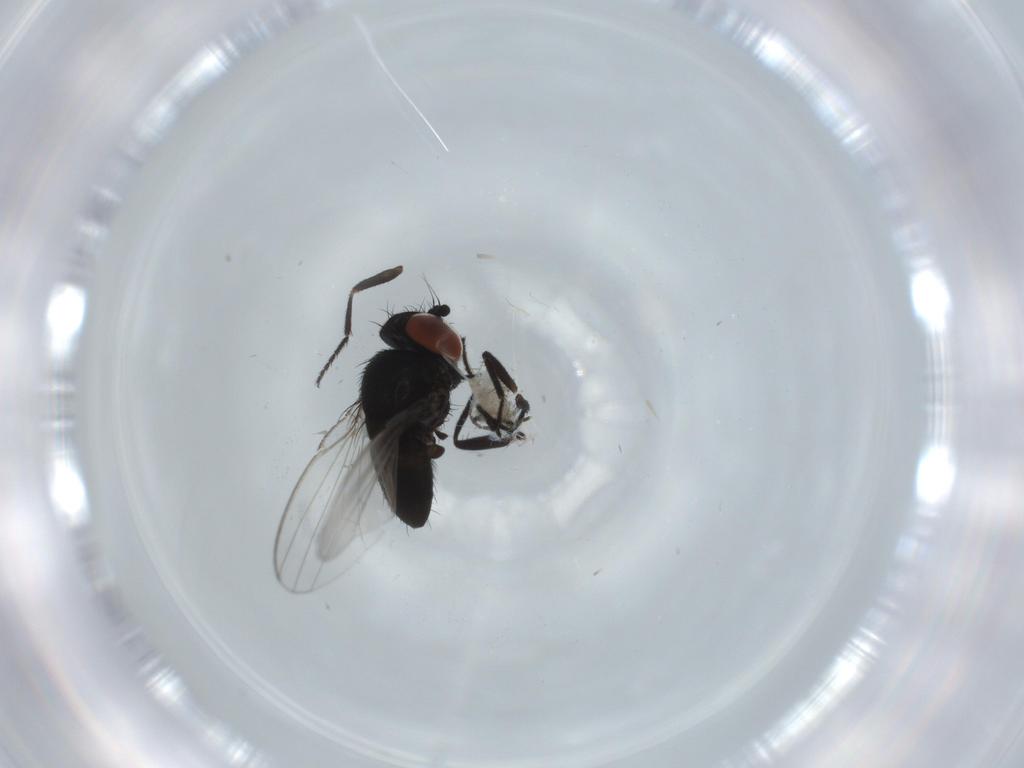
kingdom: Animalia
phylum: Arthropoda
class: Insecta
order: Diptera
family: Milichiidae
